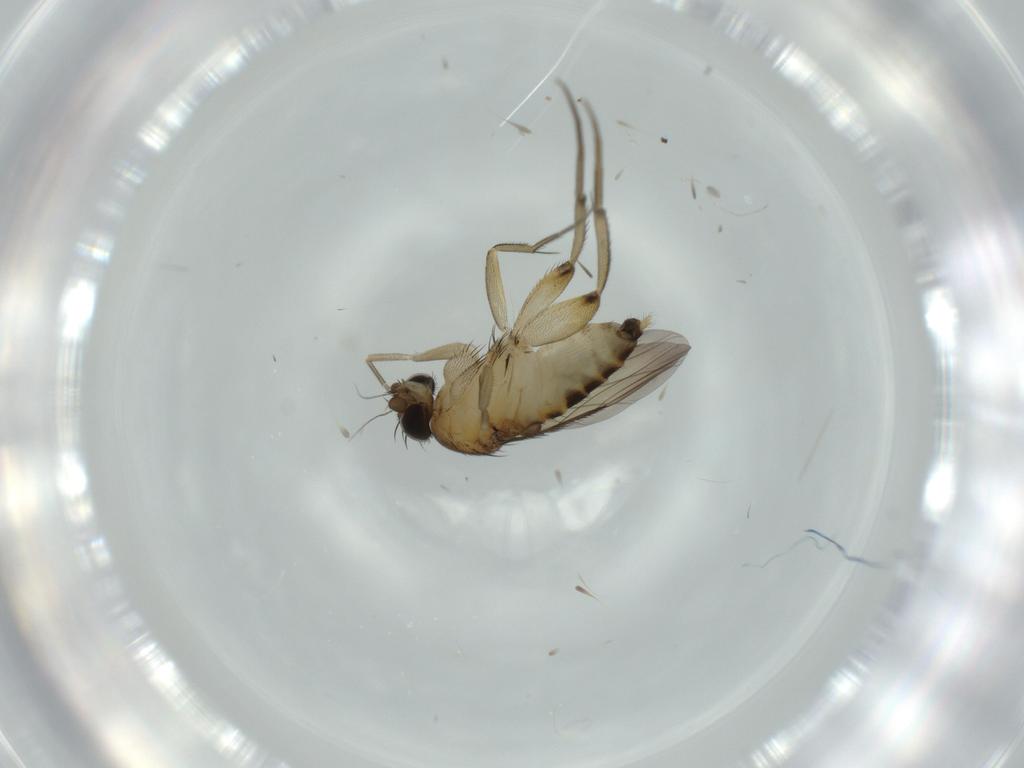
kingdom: Animalia
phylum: Arthropoda
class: Insecta
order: Diptera
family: Phoridae
